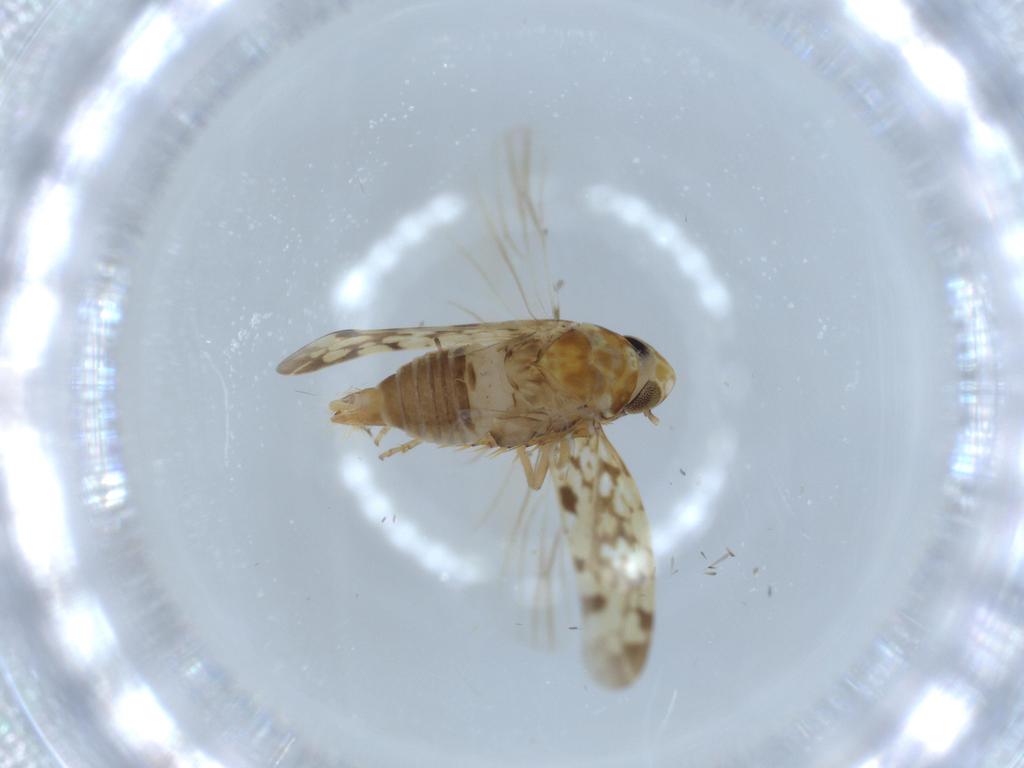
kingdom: Animalia
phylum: Arthropoda
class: Insecta
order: Hemiptera
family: Cicadellidae
